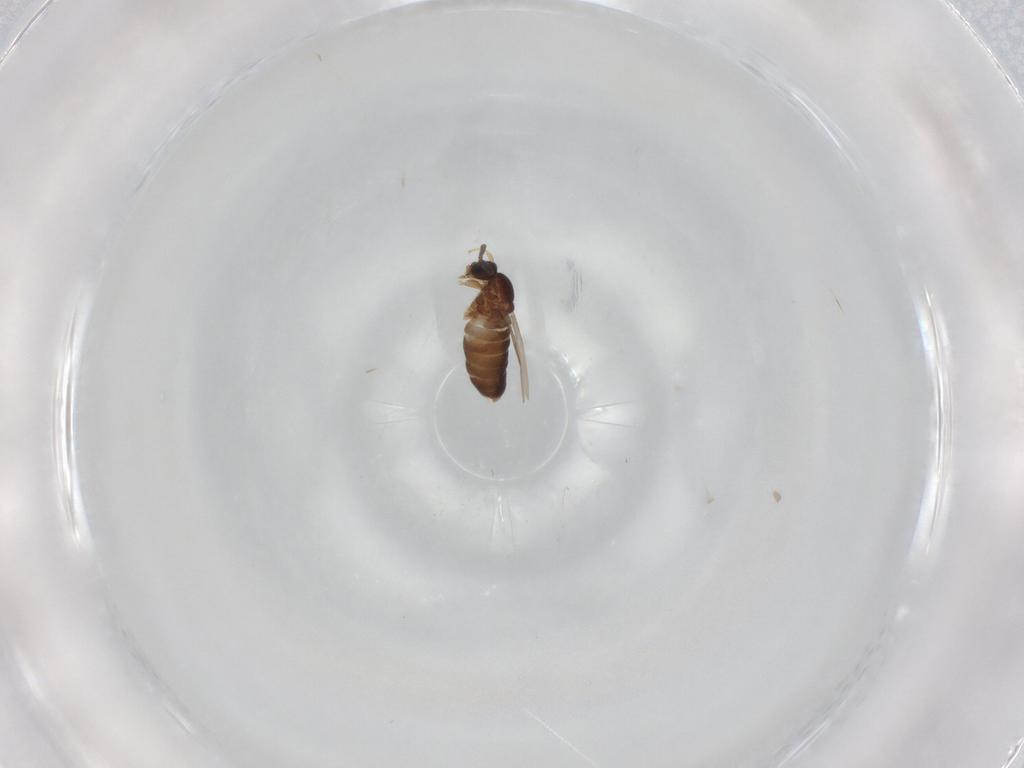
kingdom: Animalia
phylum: Arthropoda
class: Insecta
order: Diptera
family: Scatopsidae
